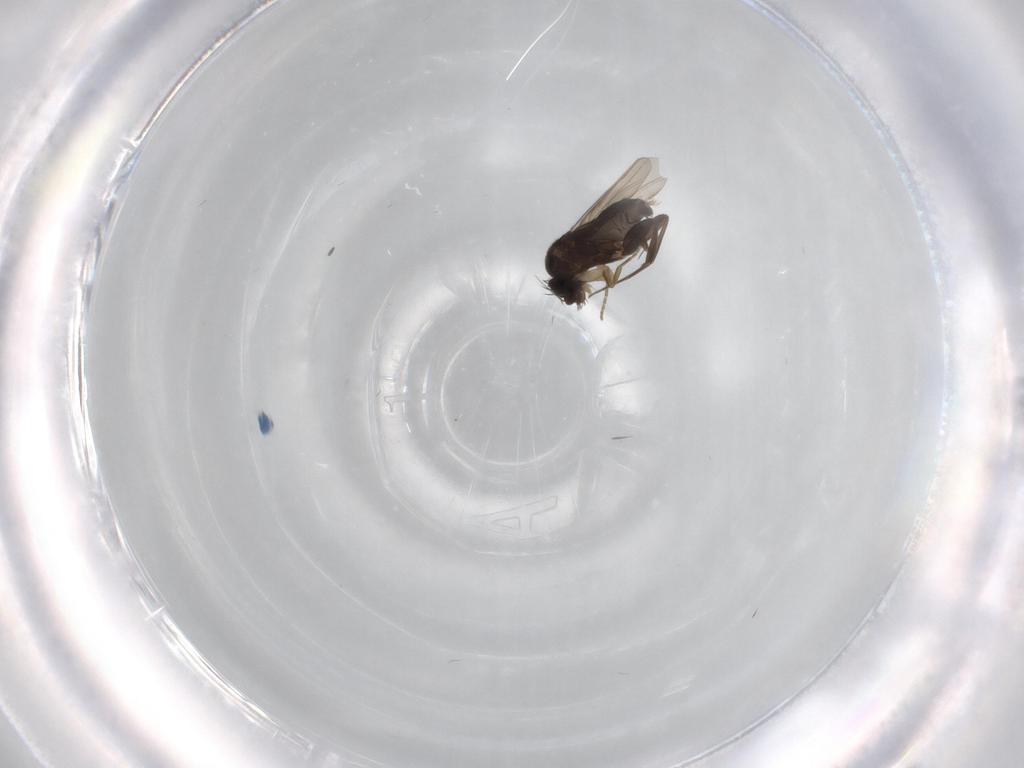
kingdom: Animalia
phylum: Arthropoda
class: Insecta
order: Diptera
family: Phoridae
